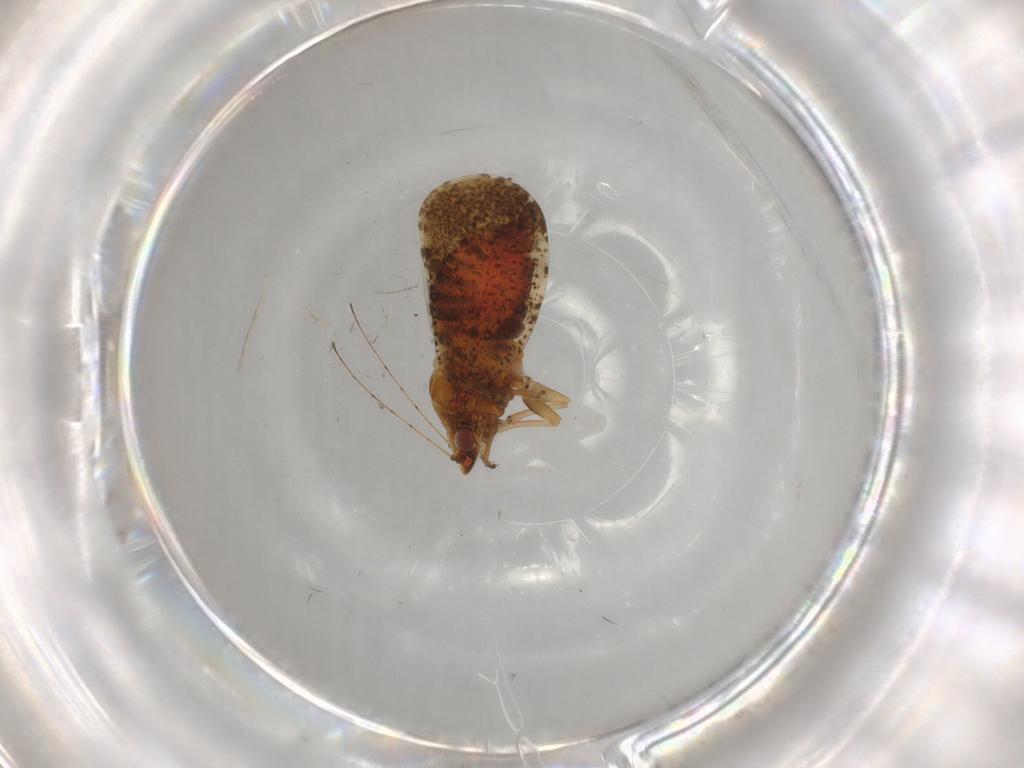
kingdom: Animalia
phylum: Arthropoda
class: Insecta
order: Hemiptera
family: Psyllidae
